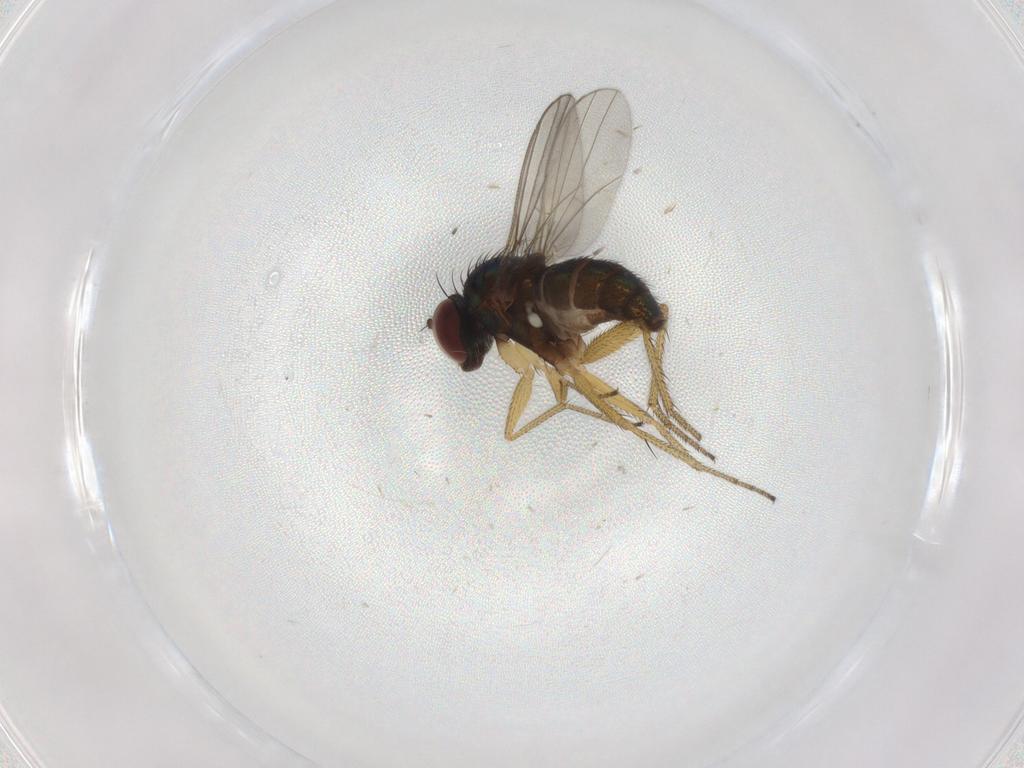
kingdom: Animalia
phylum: Arthropoda
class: Insecta
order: Diptera
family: Dolichopodidae
